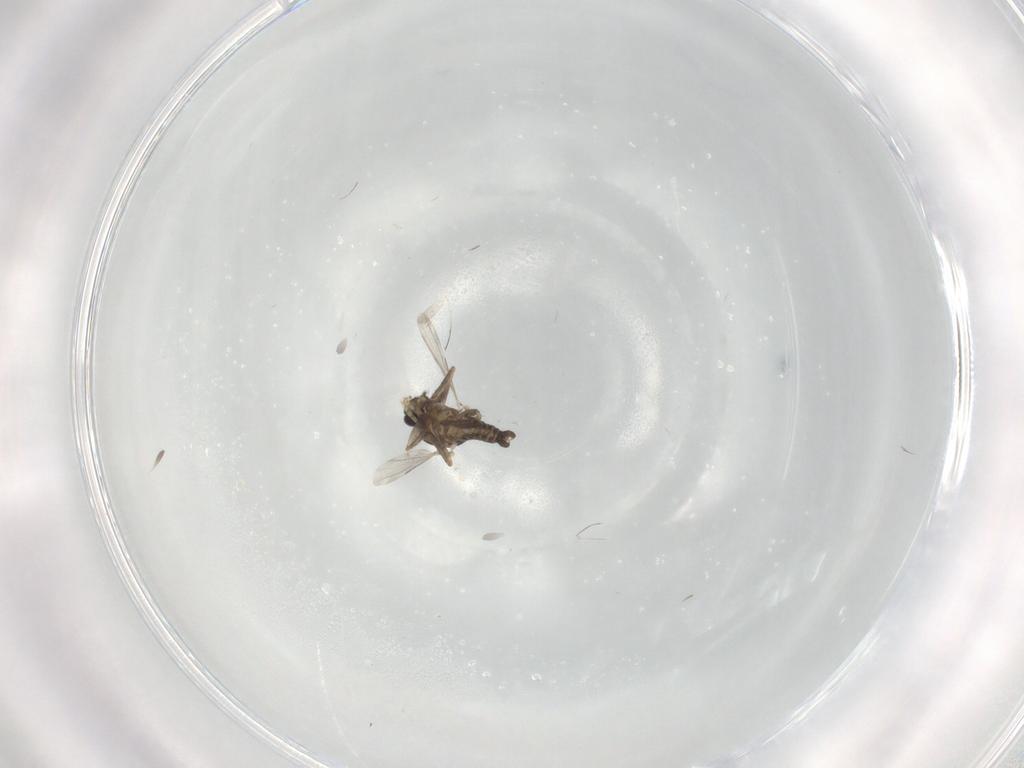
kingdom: Animalia
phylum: Arthropoda
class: Insecta
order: Diptera
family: Ceratopogonidae
